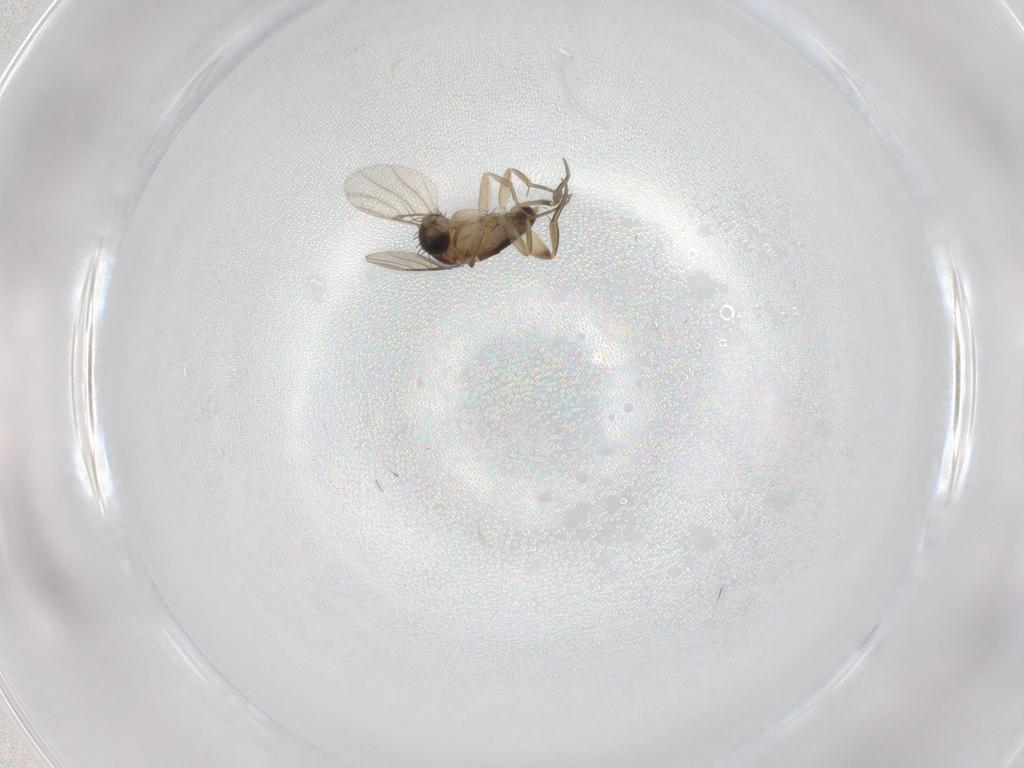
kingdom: Animalia
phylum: Arthropoda
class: Insecta
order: Diptera
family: Phoridae
